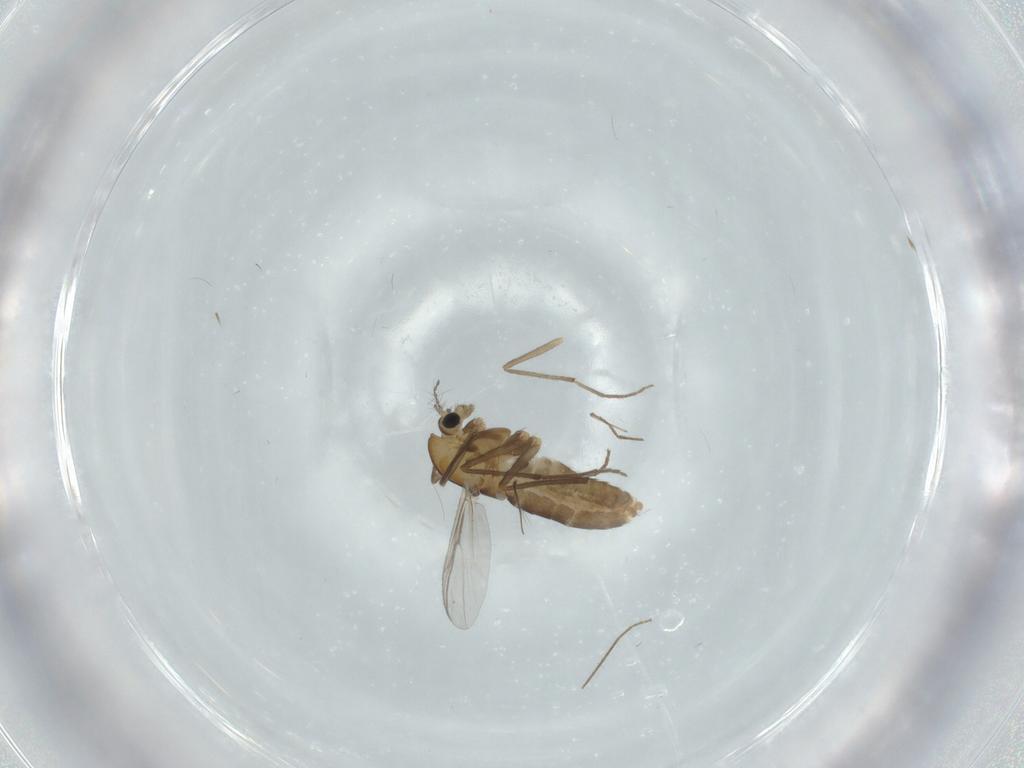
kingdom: Animalia
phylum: Arthropoda
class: Insecta
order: Diptera
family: Chironomidae
